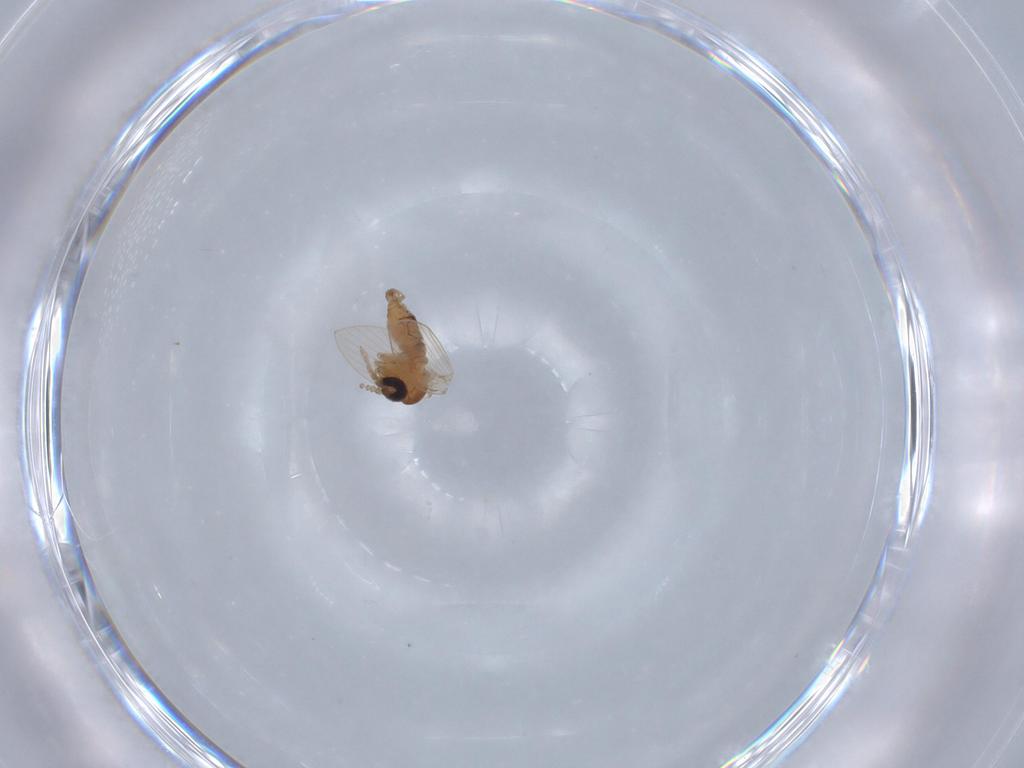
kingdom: Animalia
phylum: Arthropoda
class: Insecta
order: Diptera
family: Psychodidae
